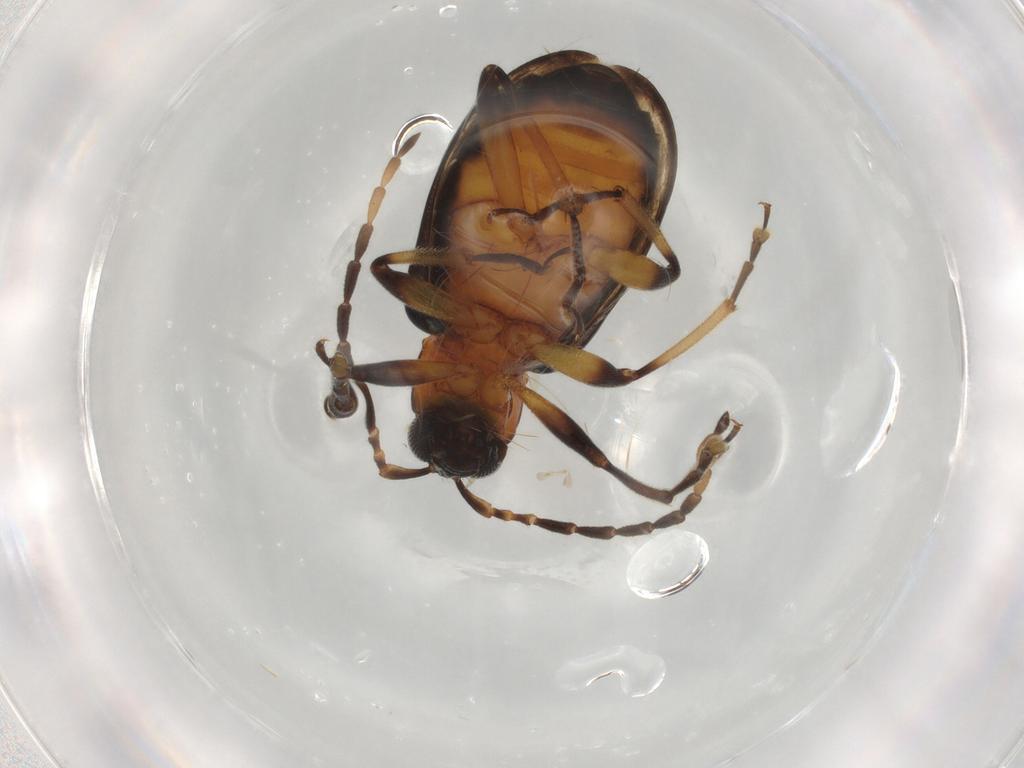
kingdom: Animalia
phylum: Arthropoda
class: Insecta
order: Coleoptera
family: Chrysomelidae
